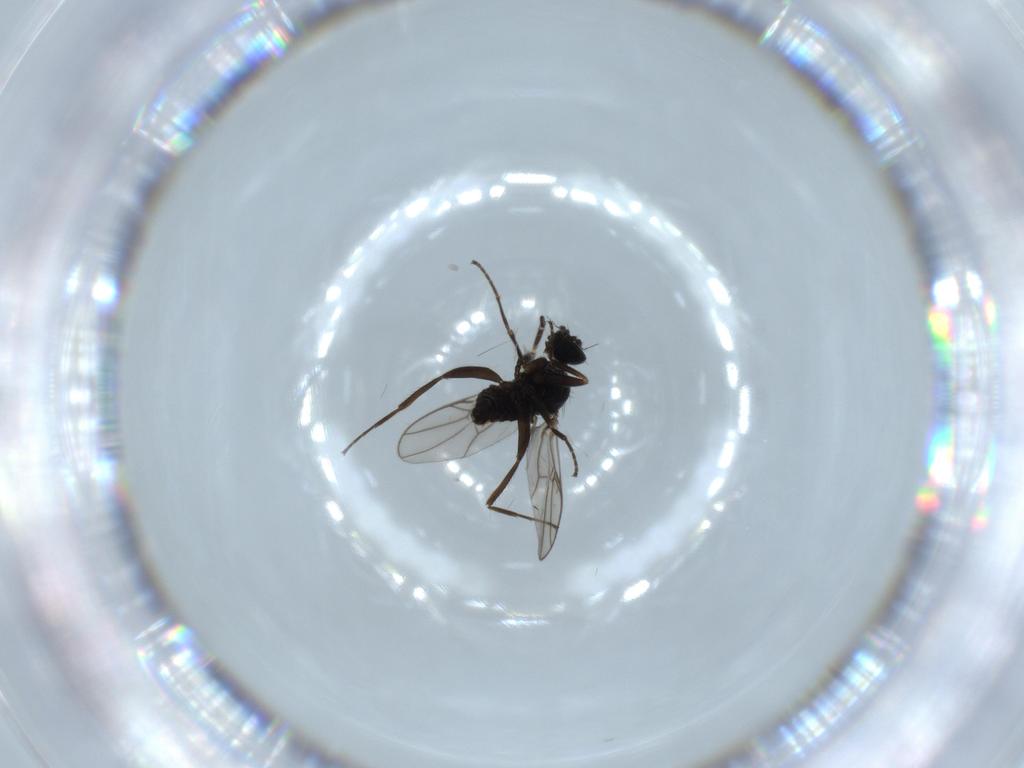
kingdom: Animalia
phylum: Arthropoda
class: Insecta
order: Diptera
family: Hybotidae
